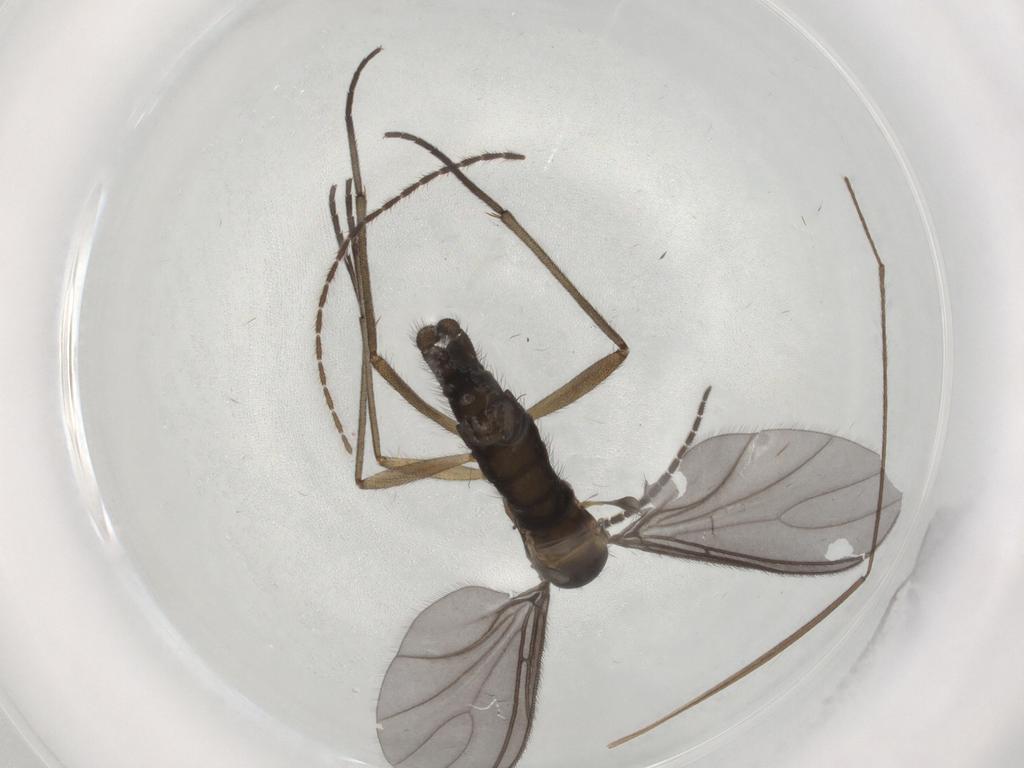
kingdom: Animalia
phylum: Arthropoda
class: Insecta
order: Diptera
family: Sciaridae
